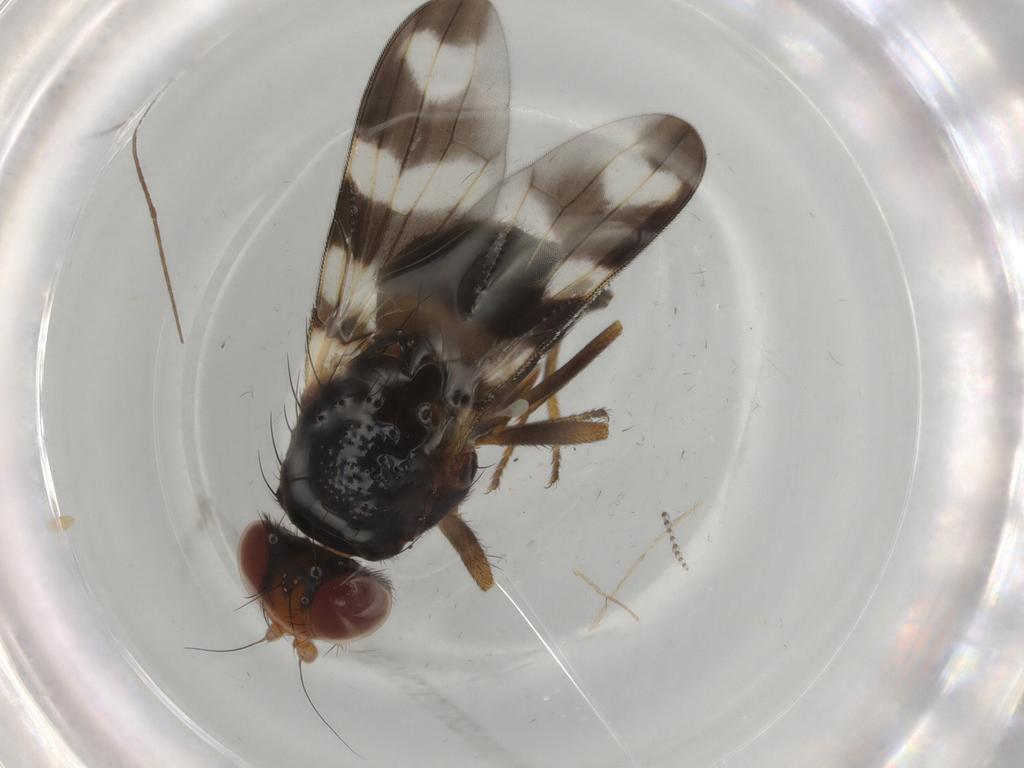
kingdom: Animalia
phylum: Arthropoda
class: Insecta
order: Diptera
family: Ulidiidae
